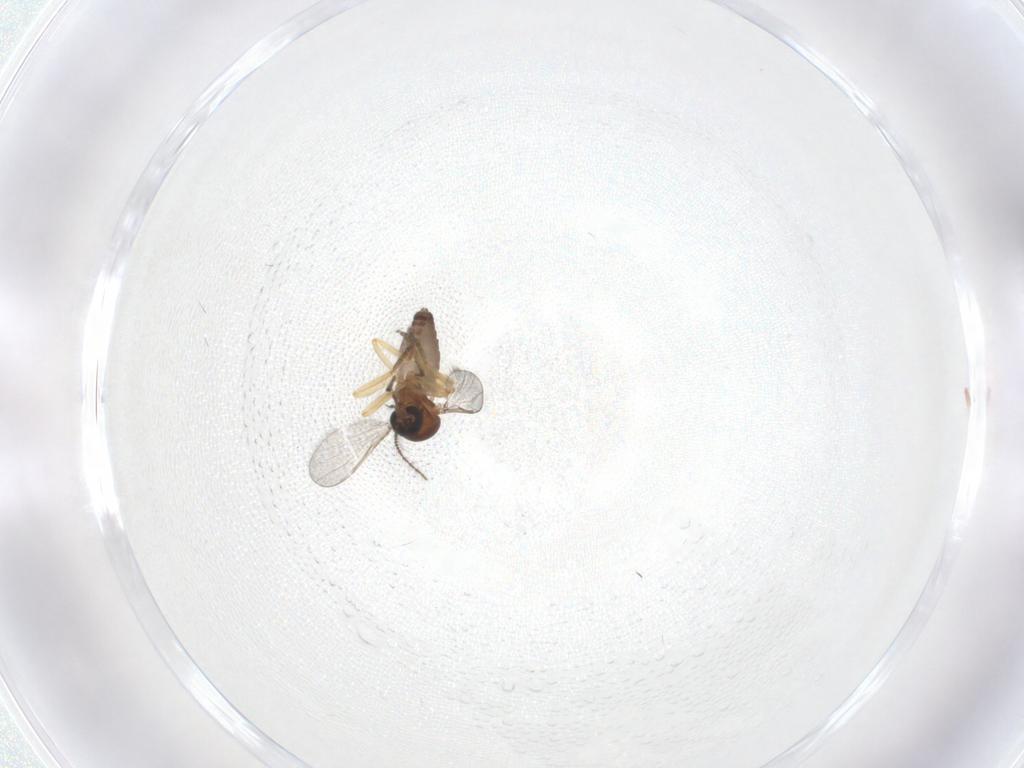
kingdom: Animalia
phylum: Arthropoda
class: Insecta
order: Diptera
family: Ceratopogonidae
